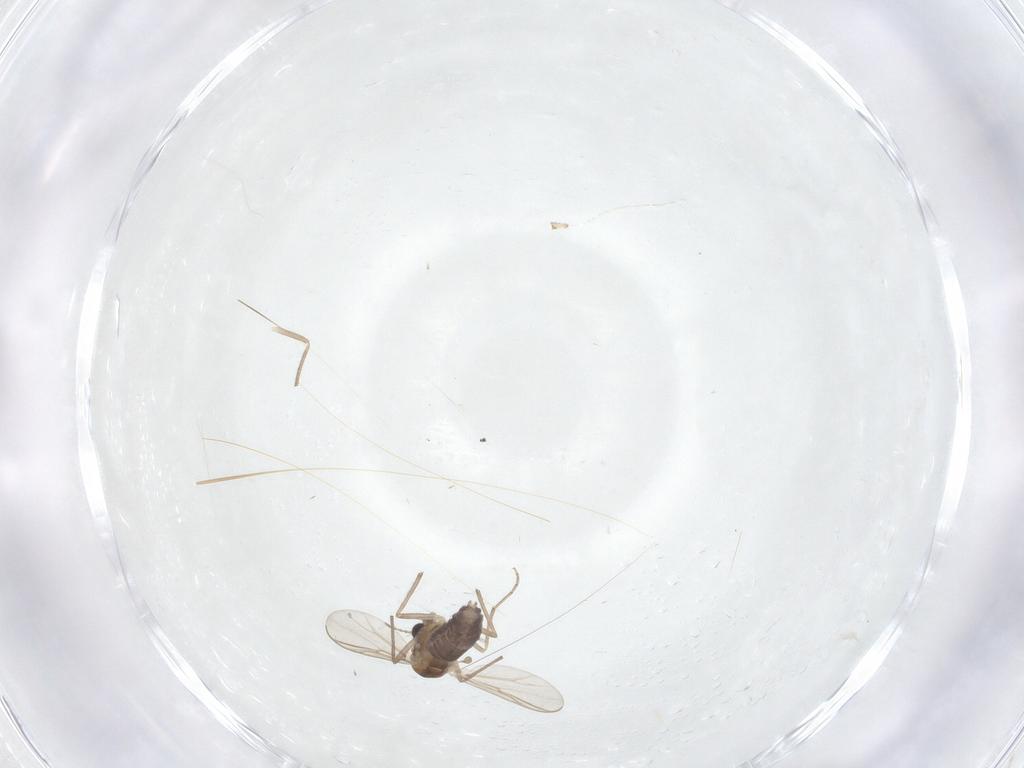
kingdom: Animalia
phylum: Arthropoda
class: Insecta
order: Diptera
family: Chironomidae
